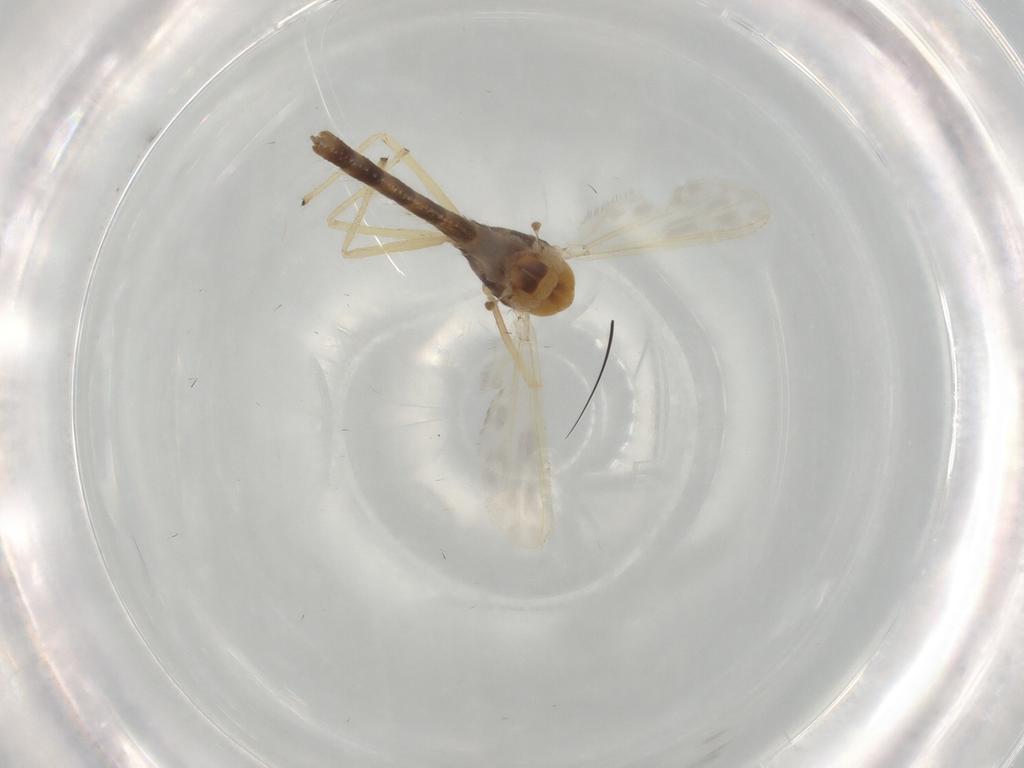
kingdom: Animalia
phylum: Arthropoda
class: Insecta
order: Diptera
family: Chironomidae
